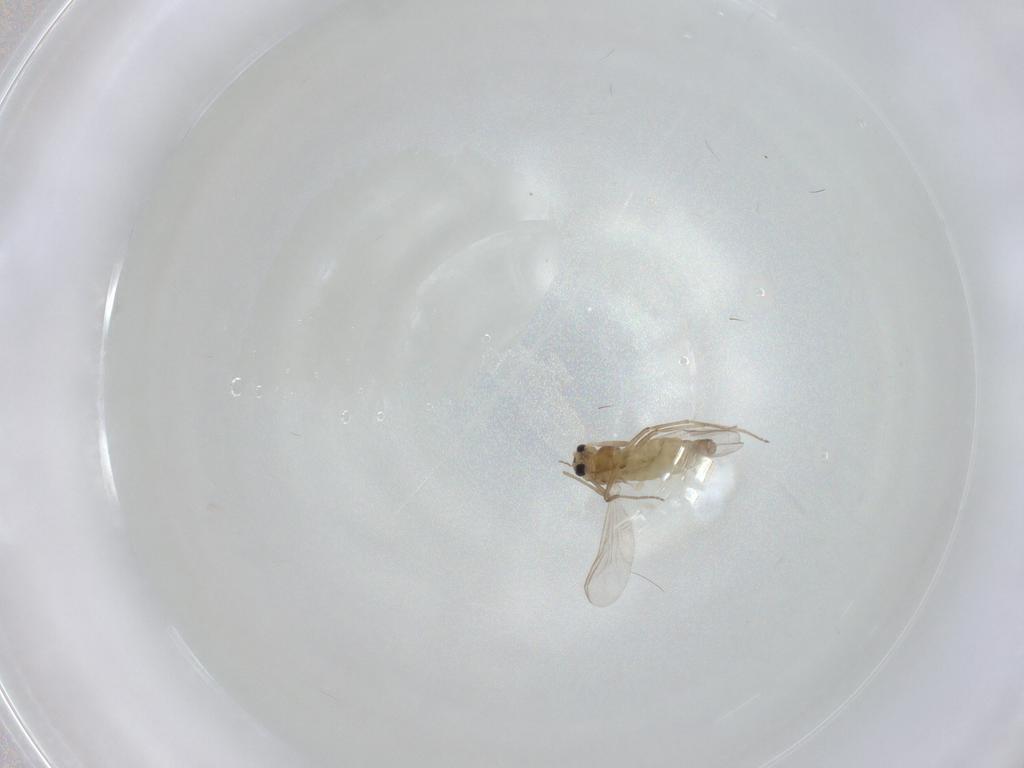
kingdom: Animalia
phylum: Arthropoda
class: Insecta
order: Diptera
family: Chironomidae
